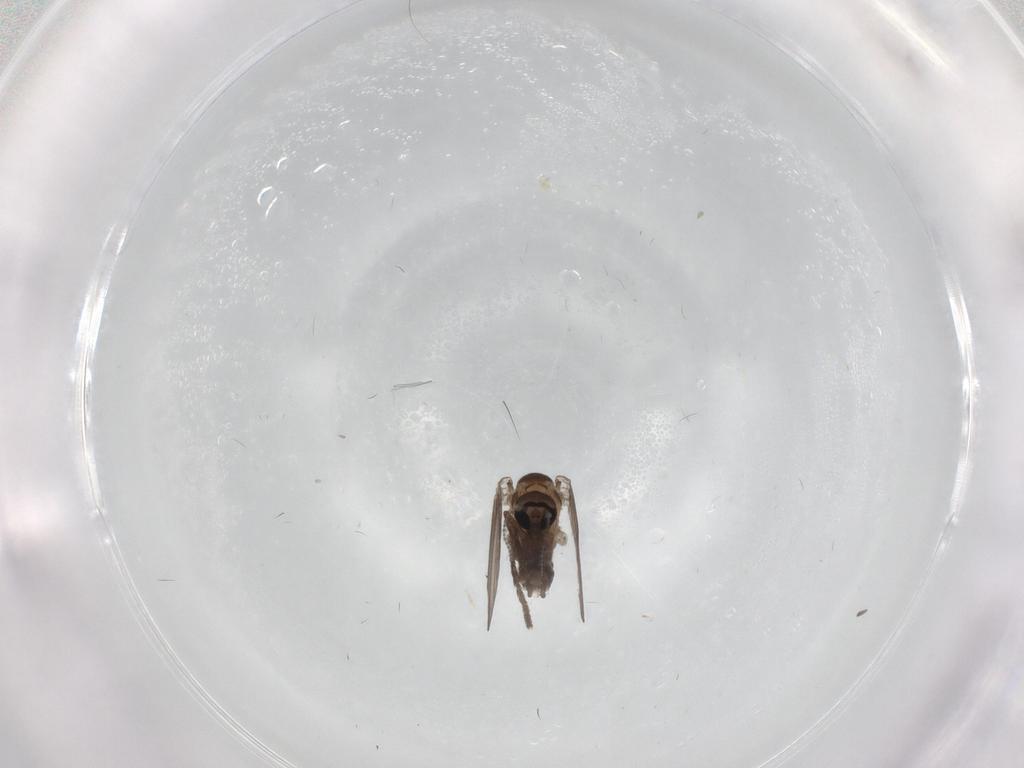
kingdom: Animalia
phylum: Arthropoda
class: Insecta
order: Diptera
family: Psychodidae
